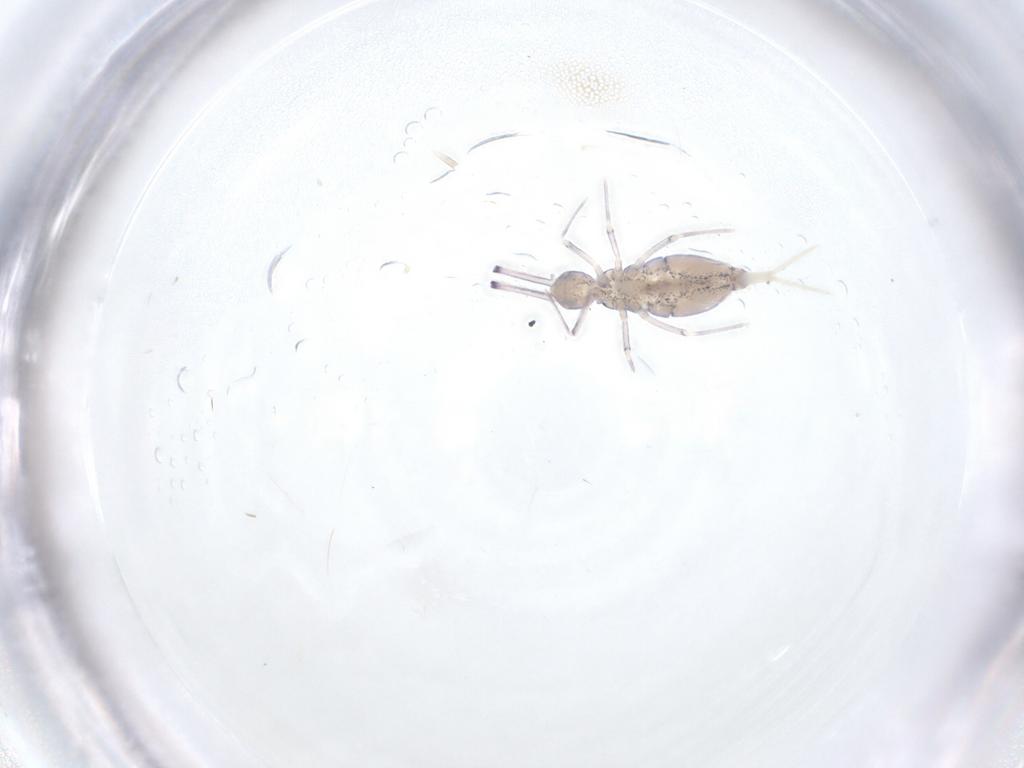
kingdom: Animalia
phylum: Arthropoda
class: Collembola
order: Entomobryomorpha
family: Paronellidae
